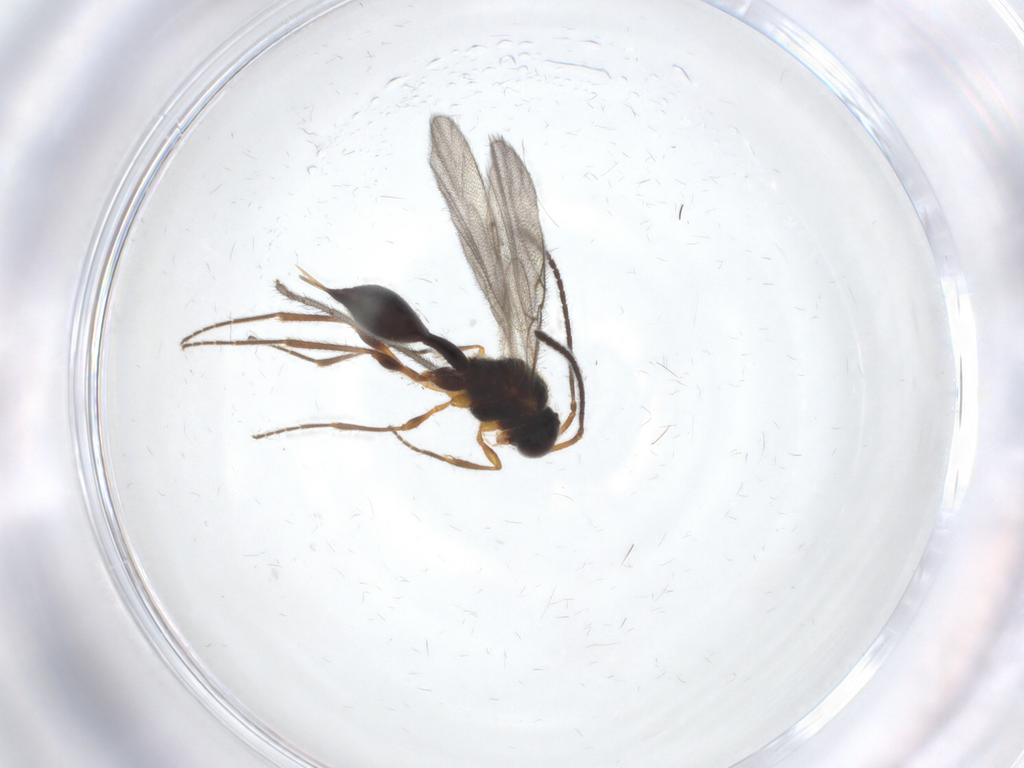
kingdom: Animalia
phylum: Arthropoda
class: Insecta
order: Hymenoptera
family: Diapriidae
